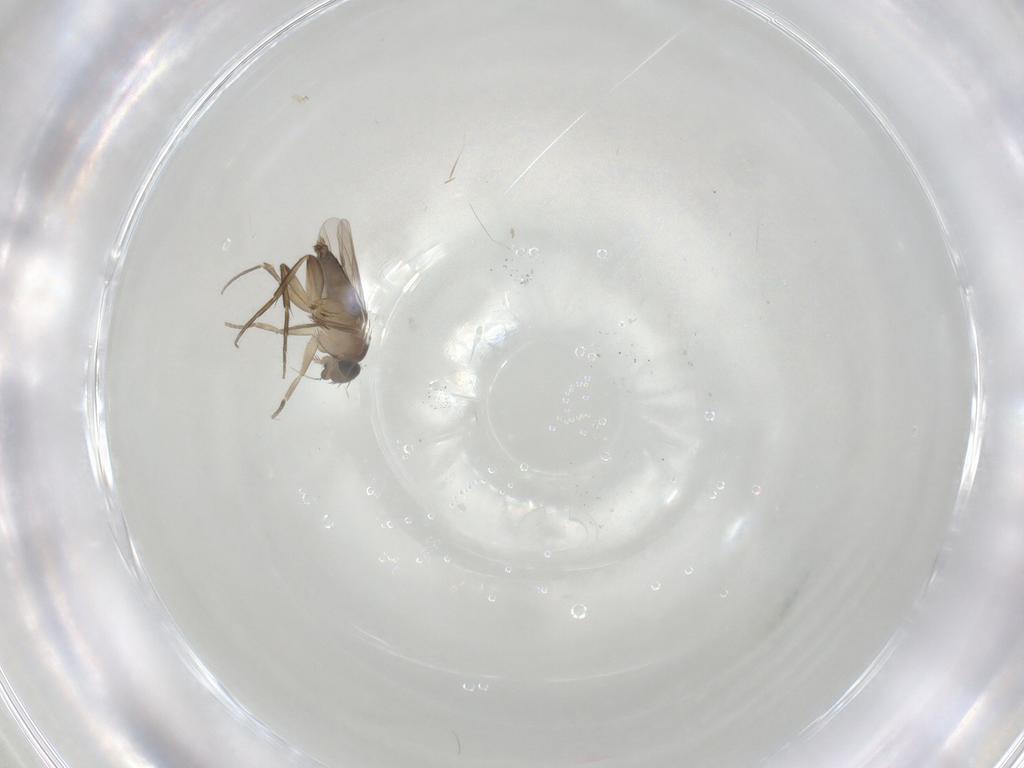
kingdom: Animalia
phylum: Arthropoda
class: Insecta
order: Diptera
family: Phoridae
